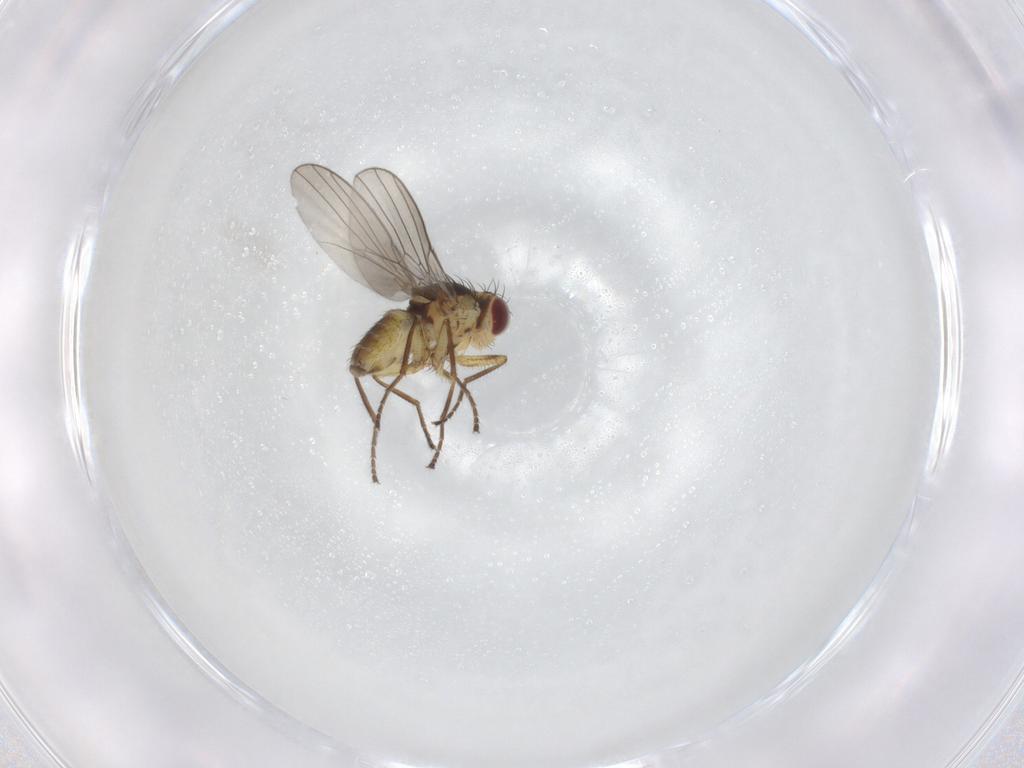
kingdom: Animalia
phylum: Arthropoda
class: Insecta
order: Diptera
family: Agromyzidae
